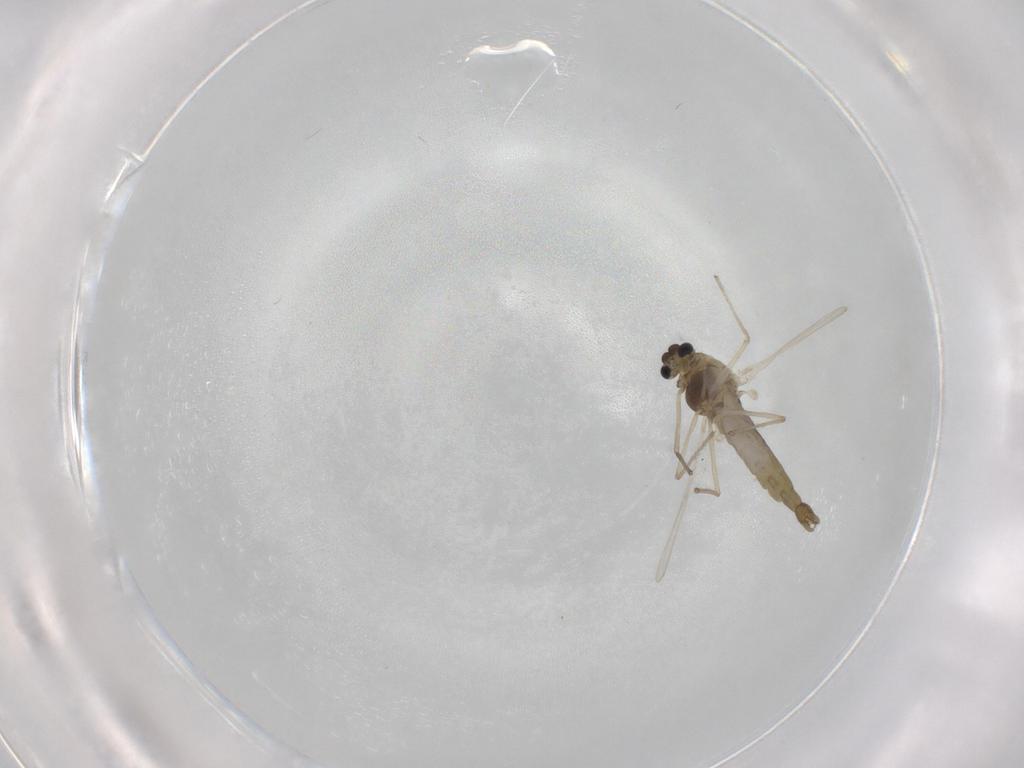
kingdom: Animalia
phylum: Arthropoda
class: Insecta
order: Diptera
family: Chironomidae
